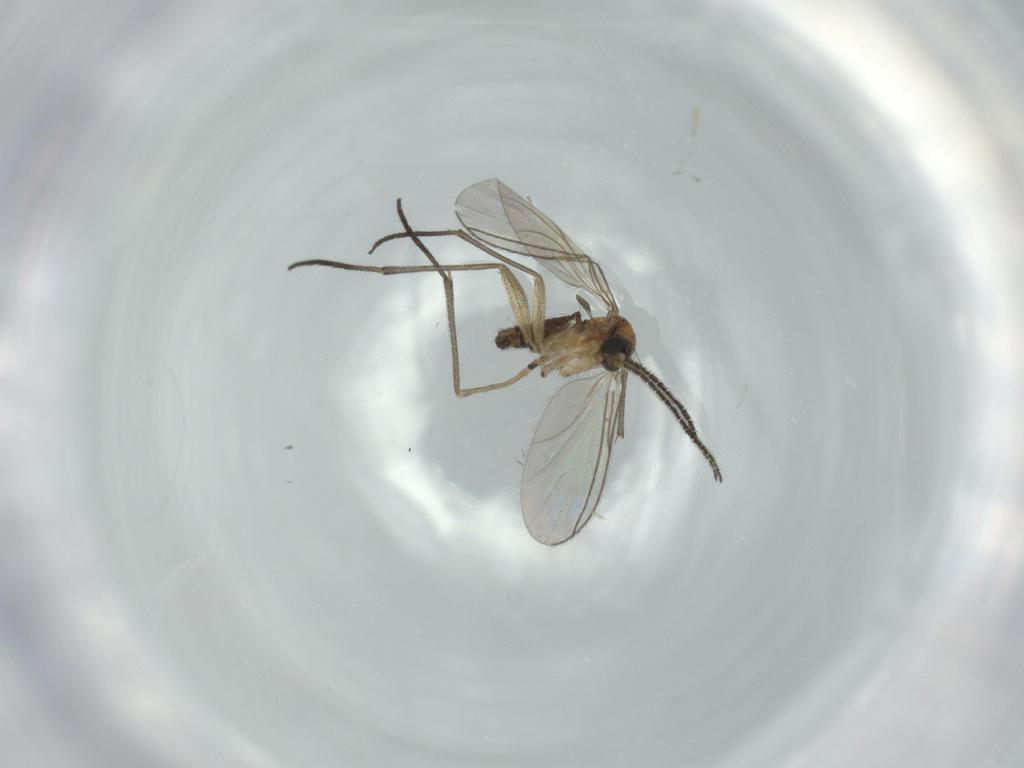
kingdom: Animalia
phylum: Arthropoda
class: Insecta
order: Diptera
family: Sciaridae
